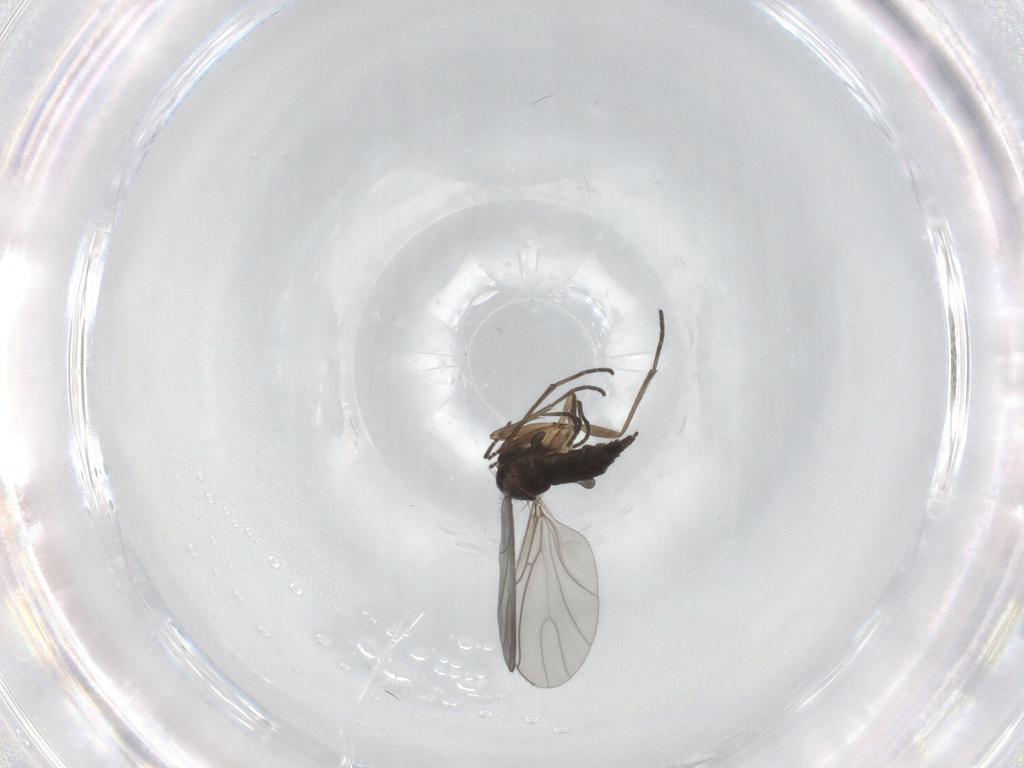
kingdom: Animalia
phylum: Arthropoda
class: Insecta
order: Diptera
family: Sciaridae
